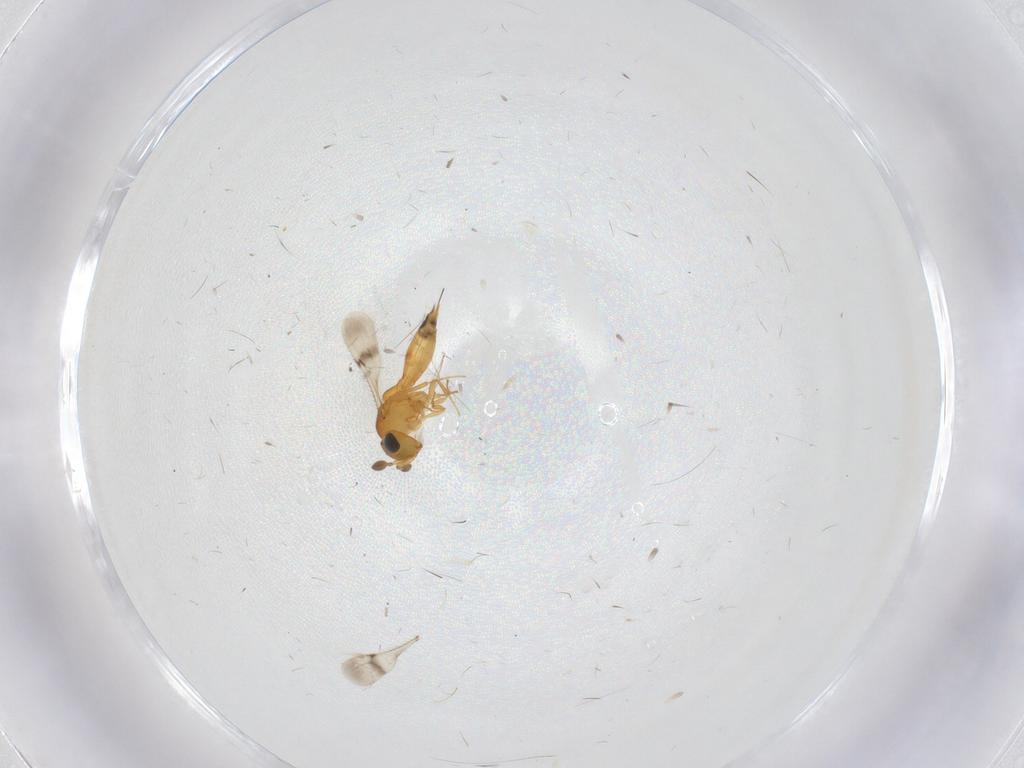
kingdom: Animalia
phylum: Arthropoda
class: Insecta
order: Hymenoptera
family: Scelionidae
